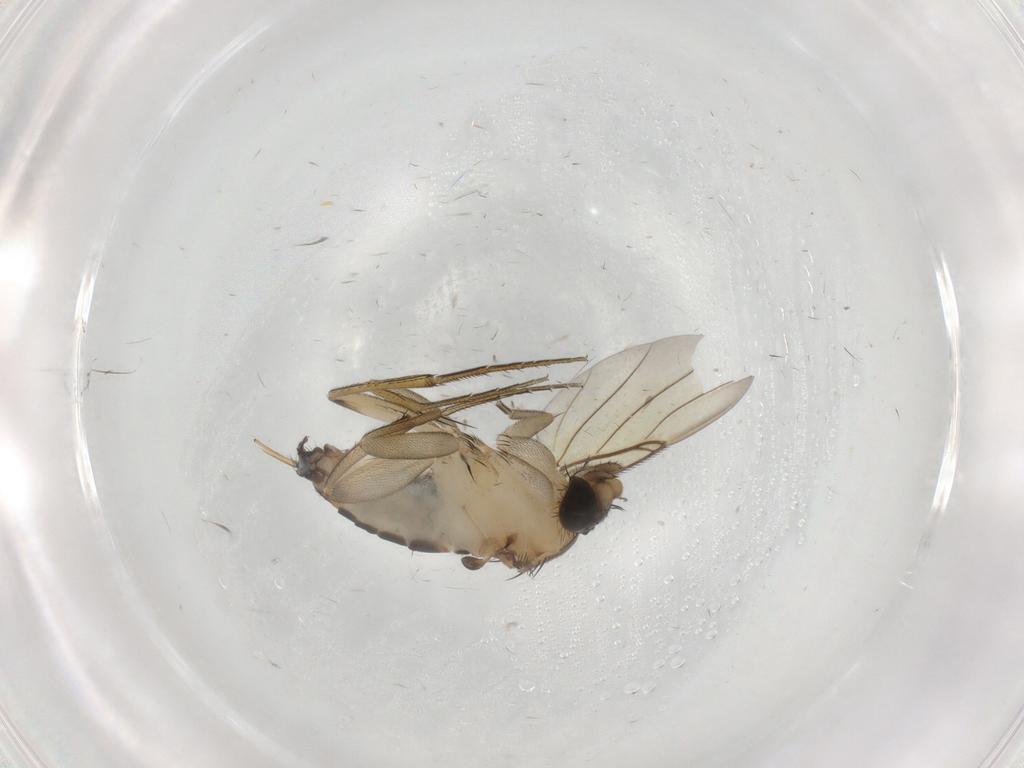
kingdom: Animalia
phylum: Arthropoda
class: Insecta
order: Diptera
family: Phoridae
